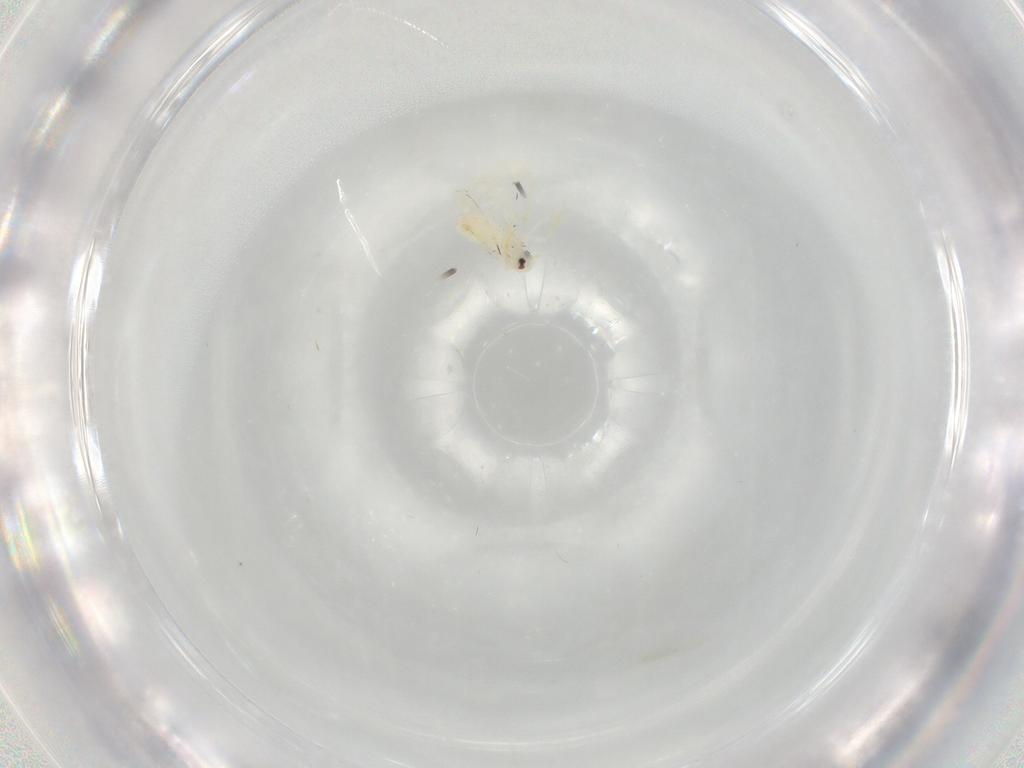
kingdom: Animalia
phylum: Arthropoda
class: Insecta
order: Hemiptera
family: Aleyrodidae
